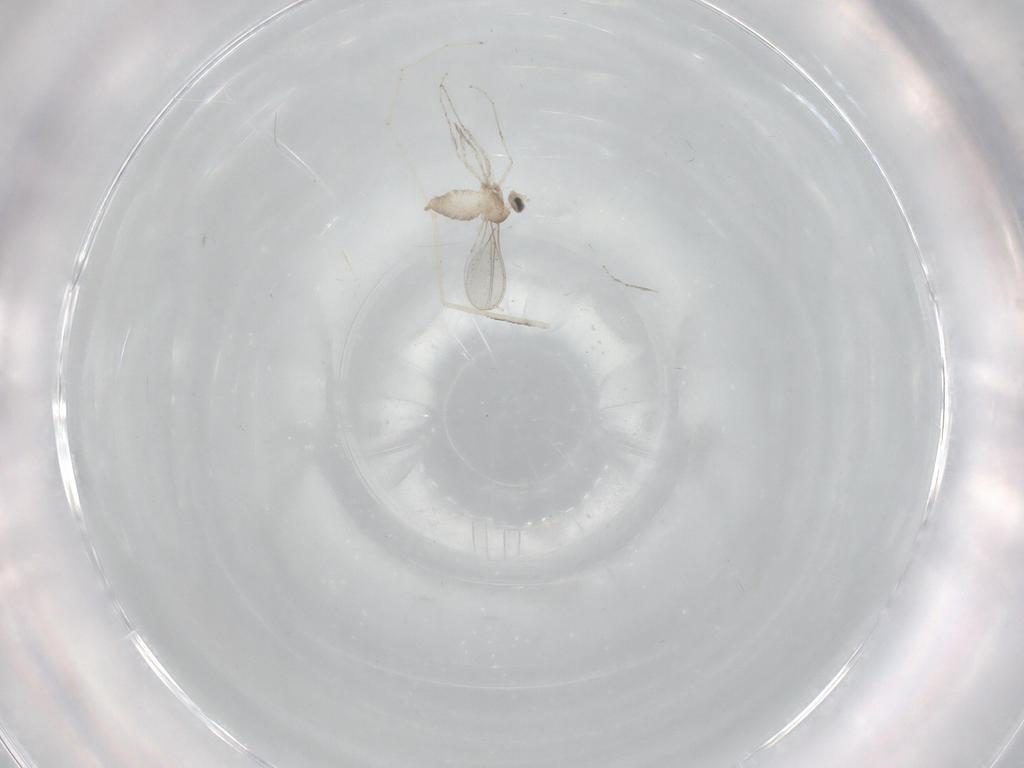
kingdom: Animalia
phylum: Arthropoda
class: Insecta
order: Diptera
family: Cecidomyiidae
